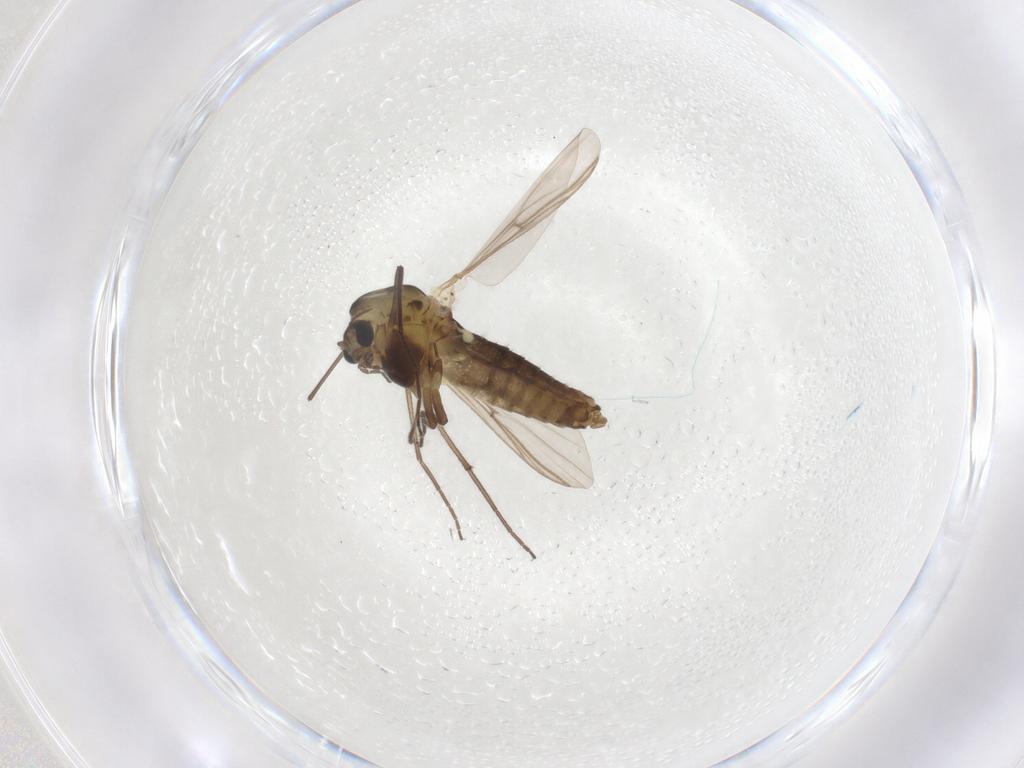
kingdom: Animalia
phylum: Arthropoda
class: Insecta
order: Diptera
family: Chironomidae
